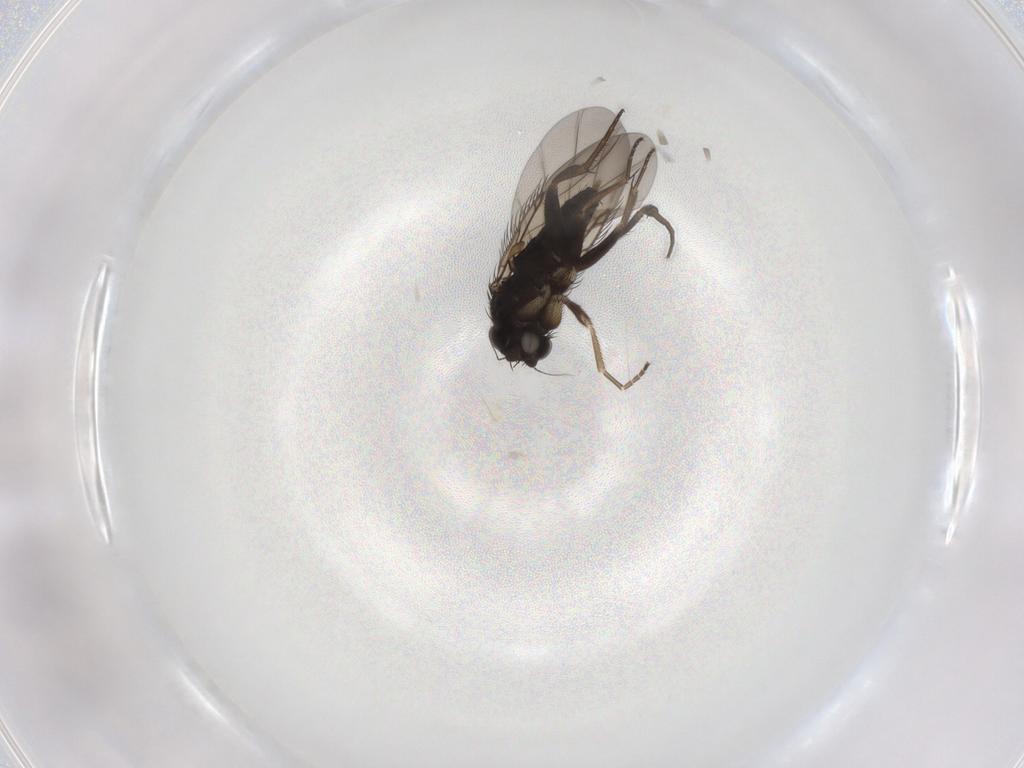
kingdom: Animalia
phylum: Arthropoda
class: Insecta
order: Diptera
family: Phoridae
